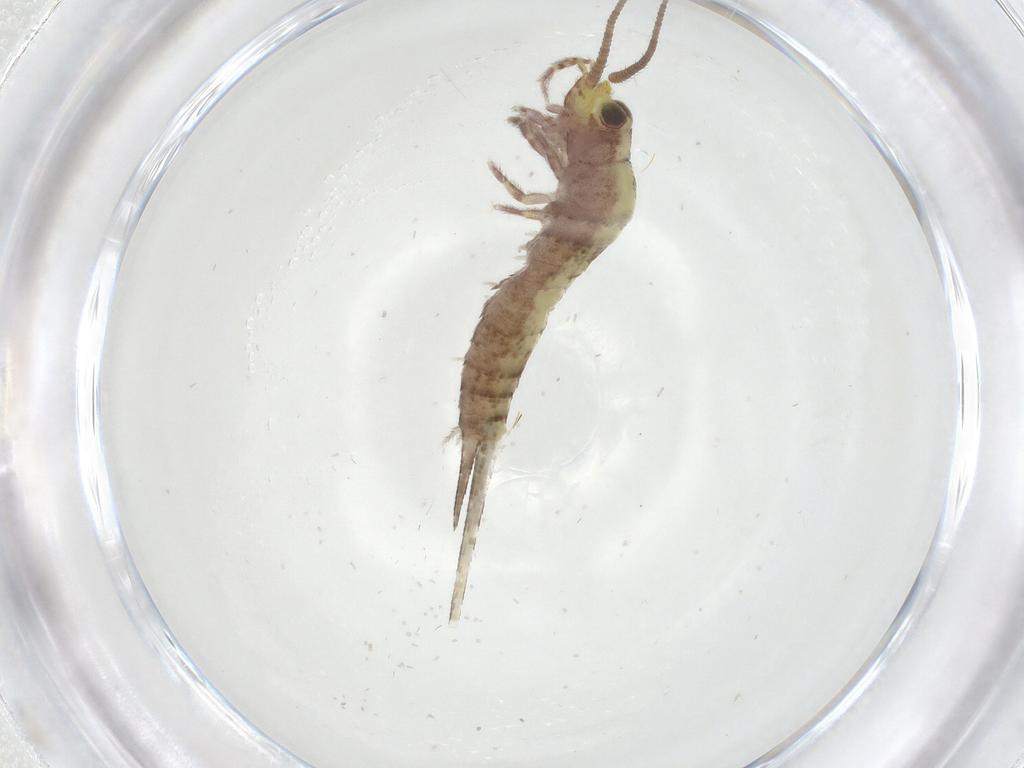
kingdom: Animalia
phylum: Arthropoda
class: Insecta
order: Archaeognatha
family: Machilidae
